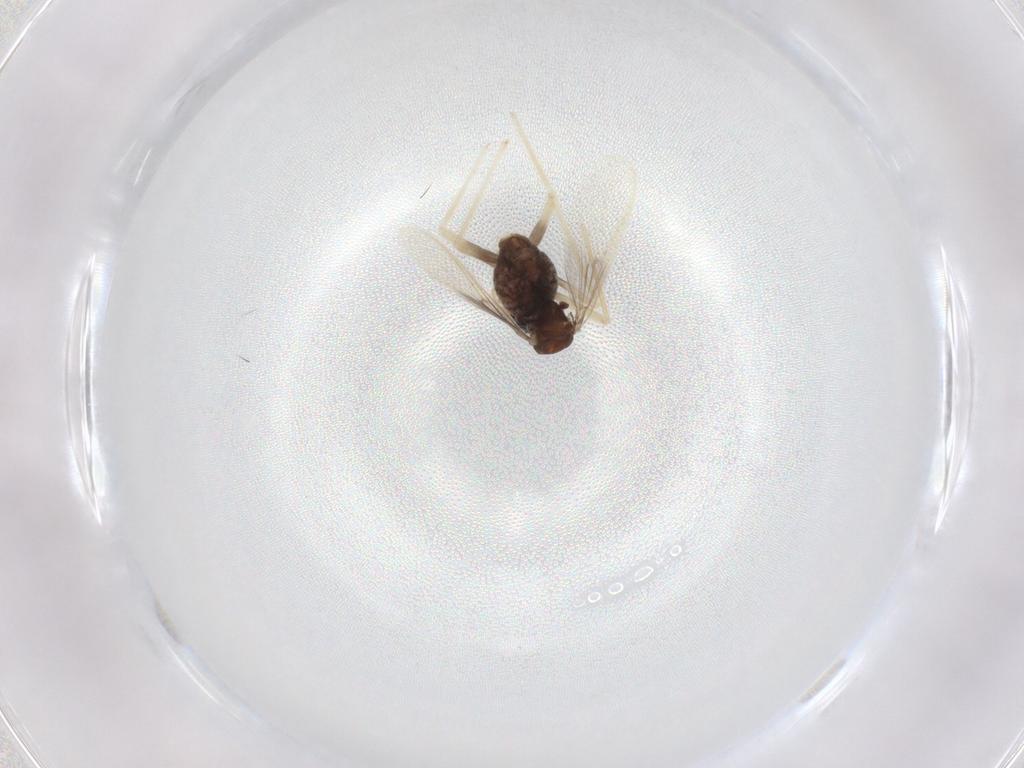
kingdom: Animalia
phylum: Arthropoda
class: Insecta
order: Diptera
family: Chironomidae
